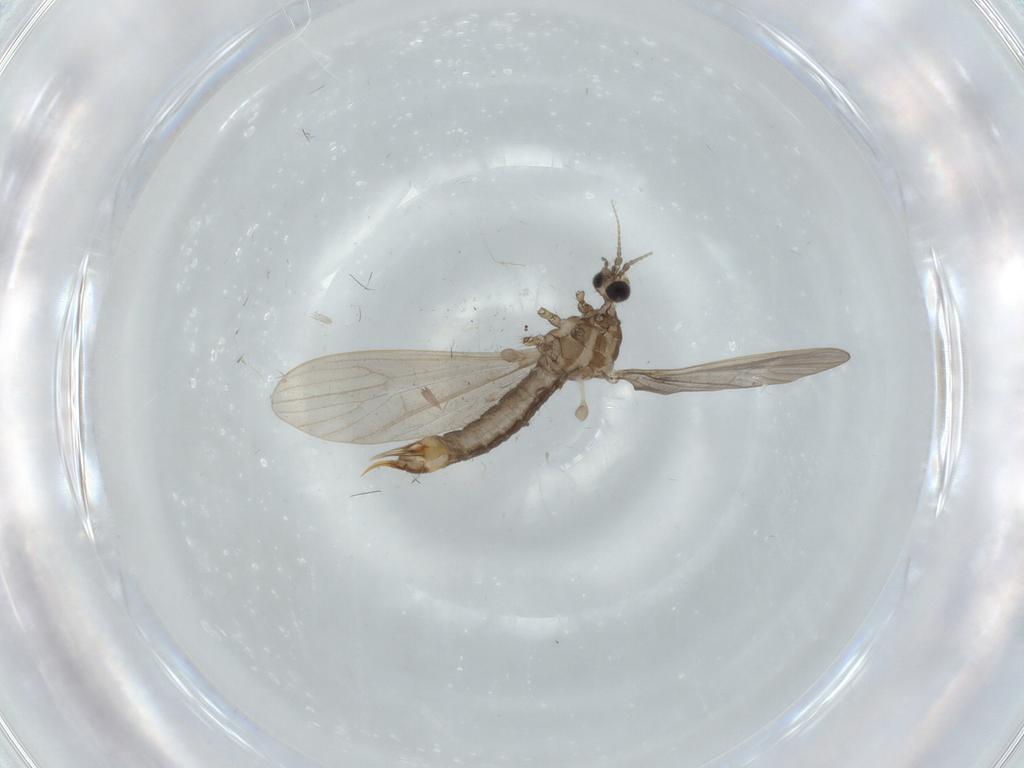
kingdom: Animalia
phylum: Arthropoda
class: Insecta
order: Diptera
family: Limoniidae
